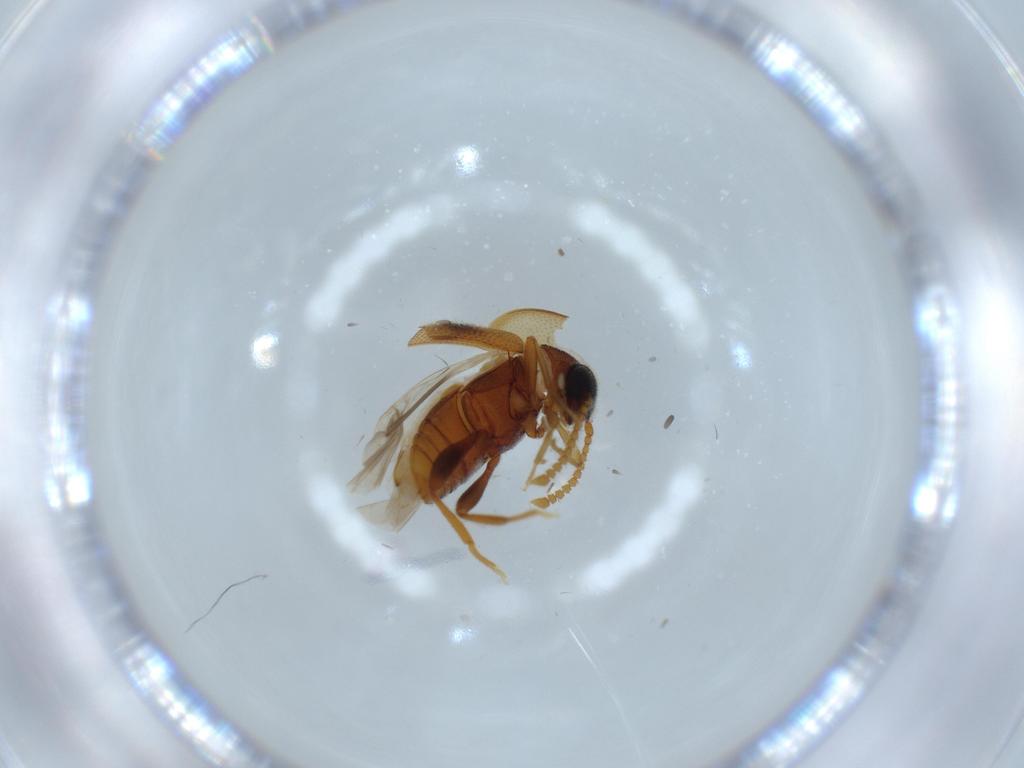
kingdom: Animalia
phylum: Arthropoda
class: Insecta
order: Coleoptera
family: Aderidae
